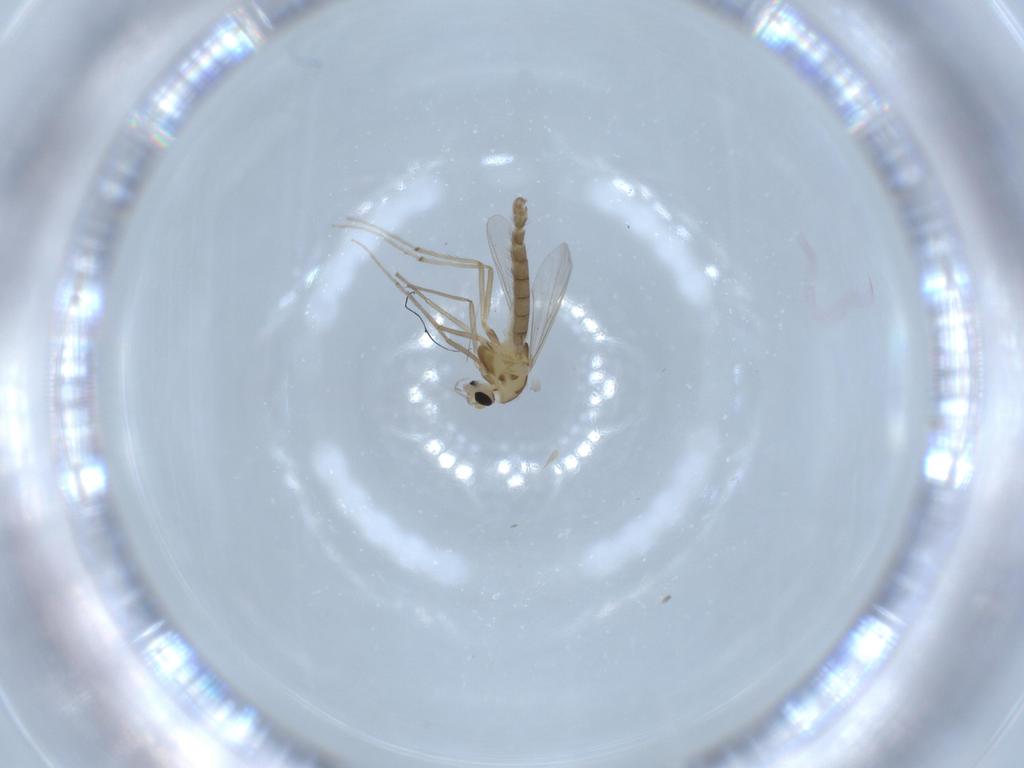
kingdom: Animalia
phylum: Arthropoda
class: Insecta
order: Diptera
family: Chironomidae
